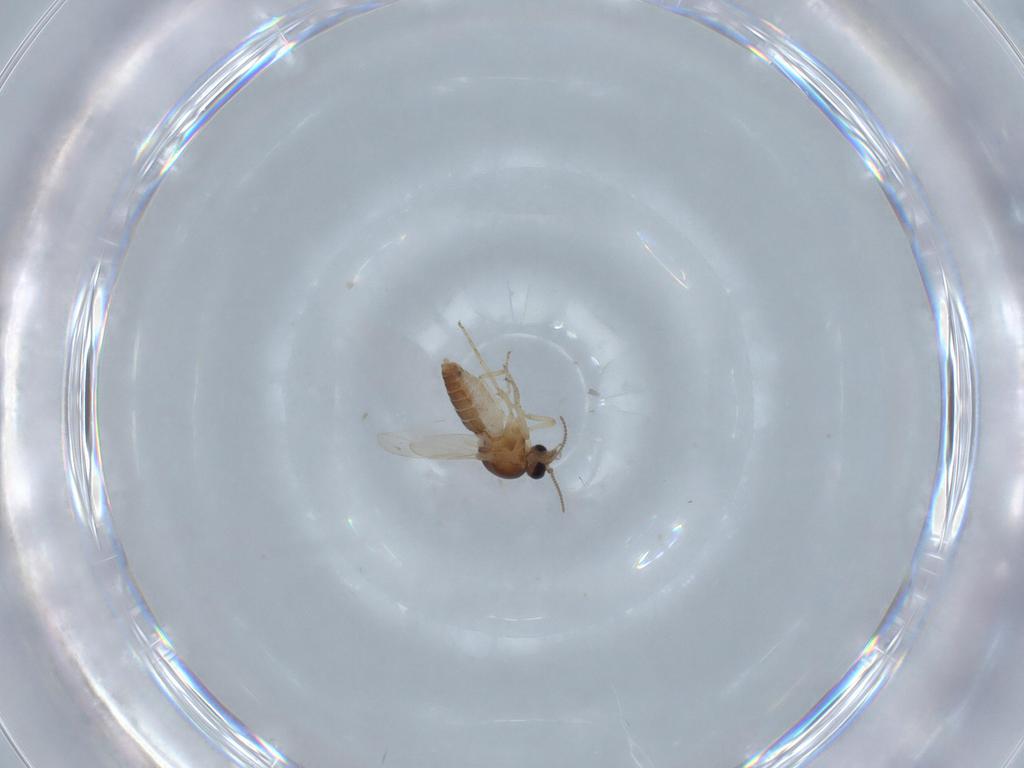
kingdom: Animalia
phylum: Arthropoda
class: Insecta
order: Diptera
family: Ceratopogonidae
